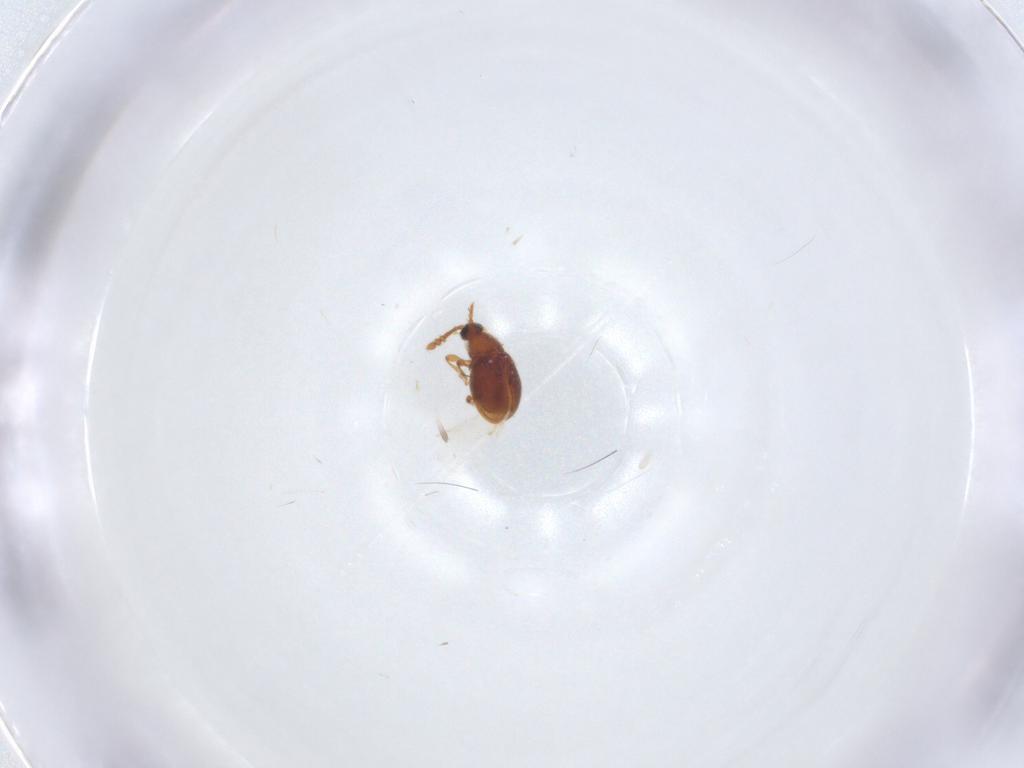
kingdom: Animalia
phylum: Arthropoda
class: Insecta
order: Coleoptera
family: Staphylinidae
